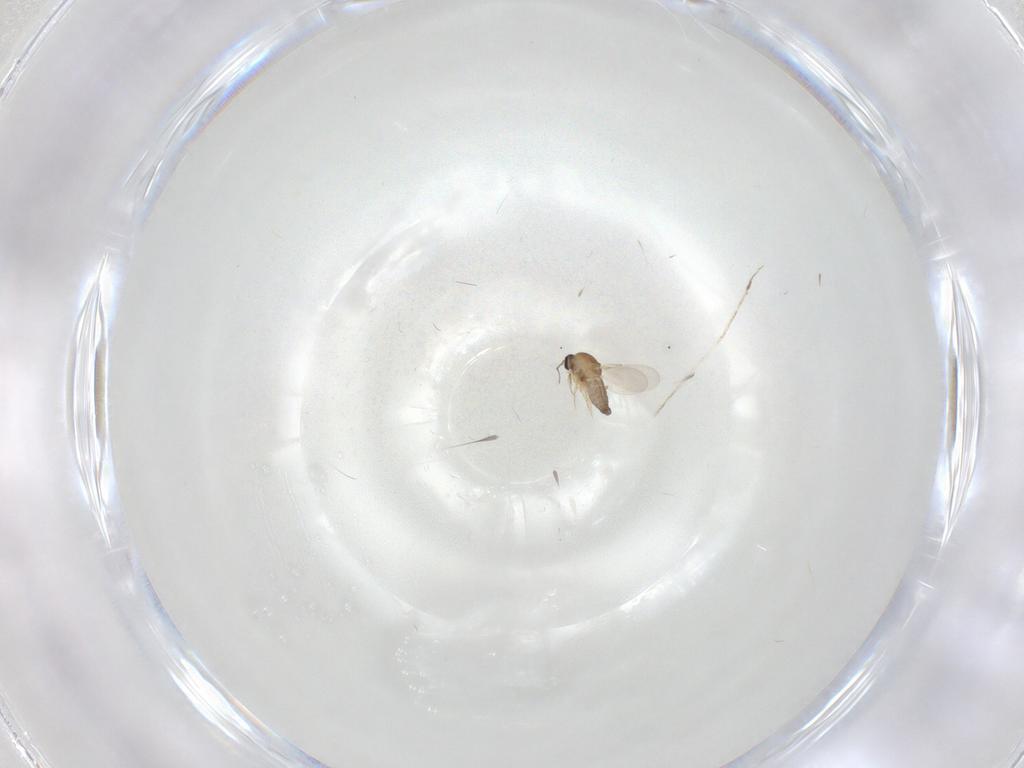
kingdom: Animalia
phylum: Arthropoda
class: Insecta
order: Diptera
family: Ceratopogonidae
